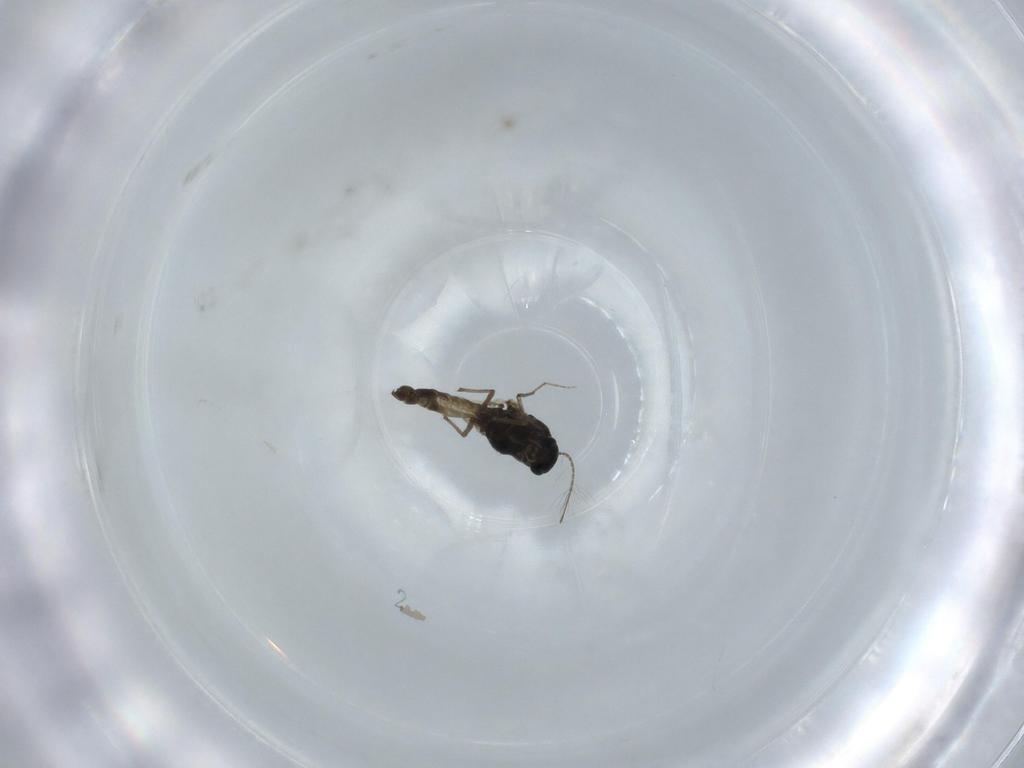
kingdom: Animalia
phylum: Arthropoda
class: Insecta
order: Diptera
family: Chironomidae
